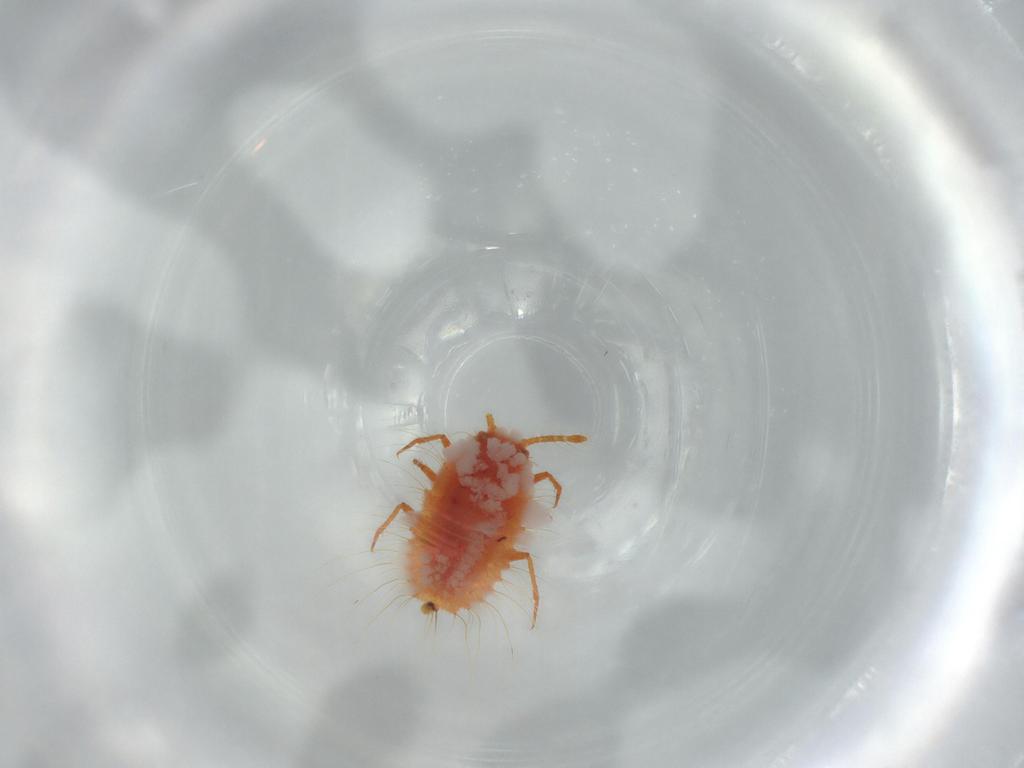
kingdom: Animalia
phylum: Arthropoda
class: Insecta
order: Hemiptera
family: Coccoidea_incertae_sedis
